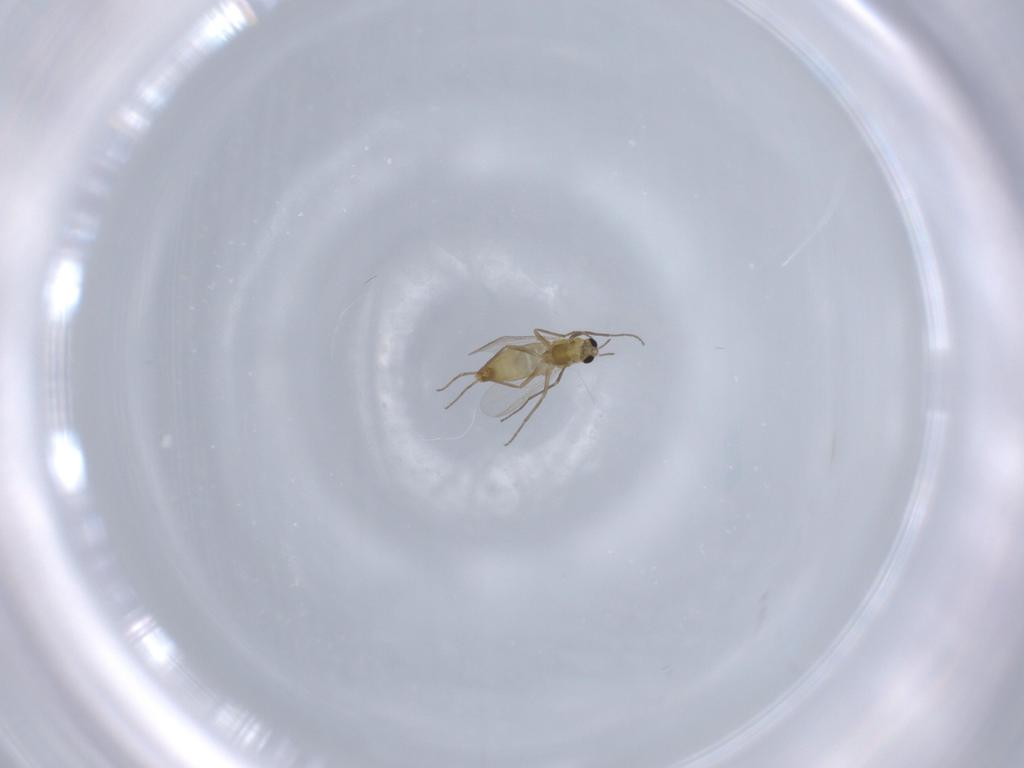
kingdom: Animalia
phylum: Arthropoda
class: Insecta
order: Diptera
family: Chironomidae
